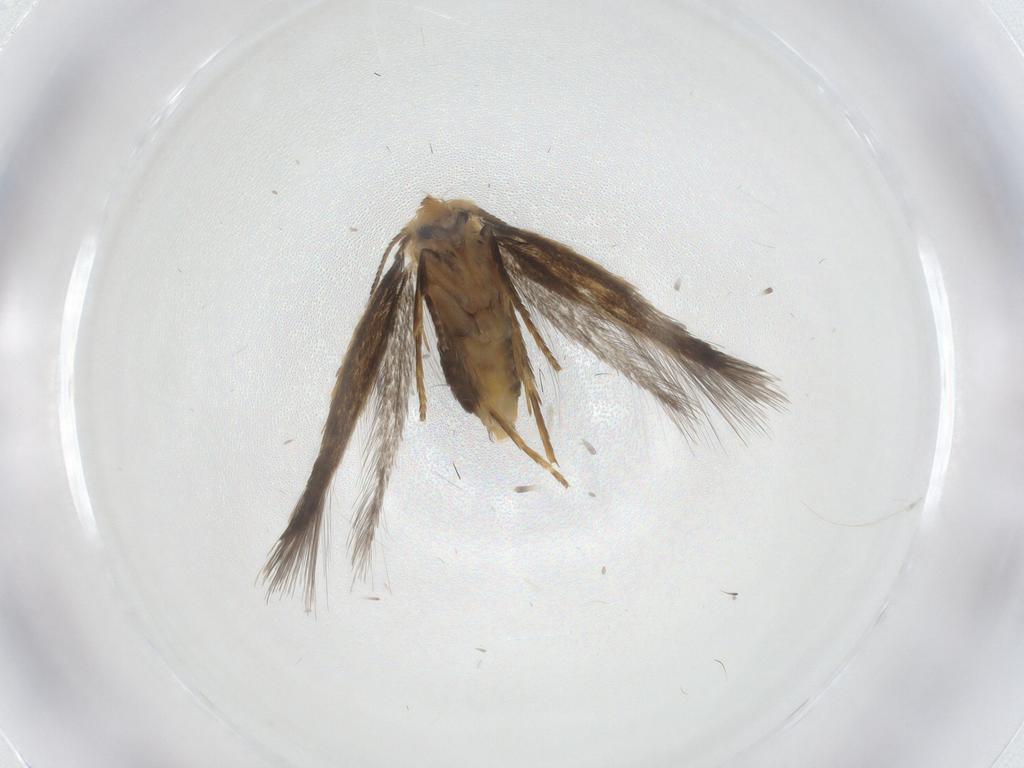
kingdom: Animalia
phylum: Arthropoda
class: Insecta
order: Lepidoptera
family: Nepticulidae
